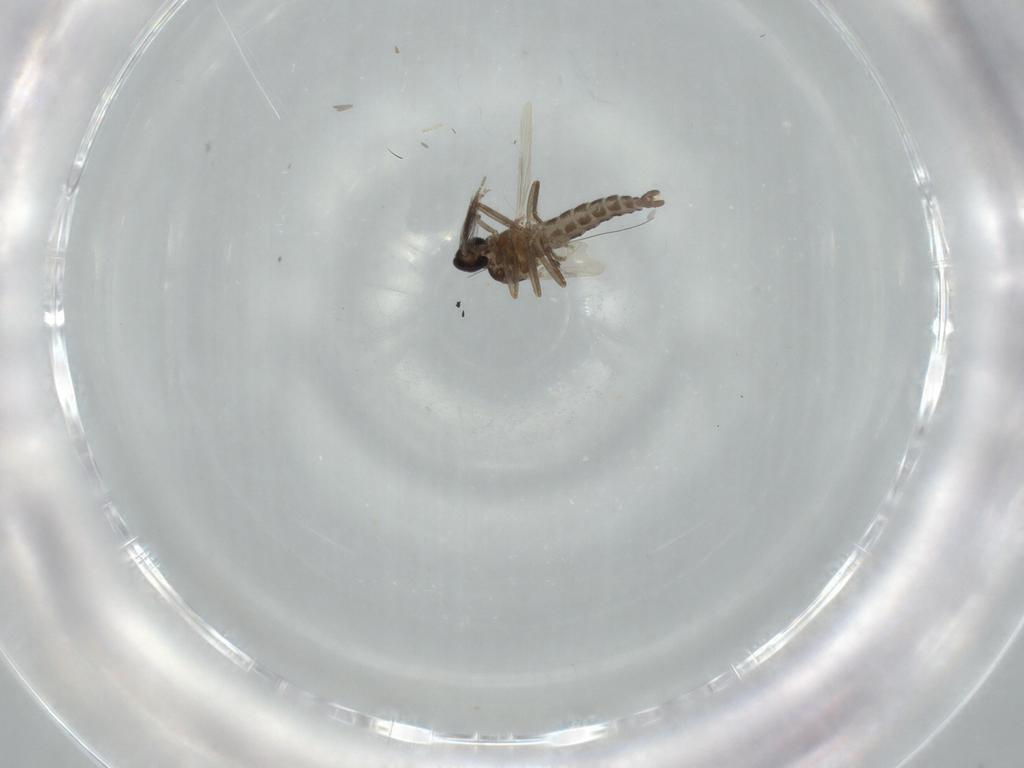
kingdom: Animalia
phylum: Arthropoda
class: Insecta
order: Diptera
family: Ceratopogonidae
